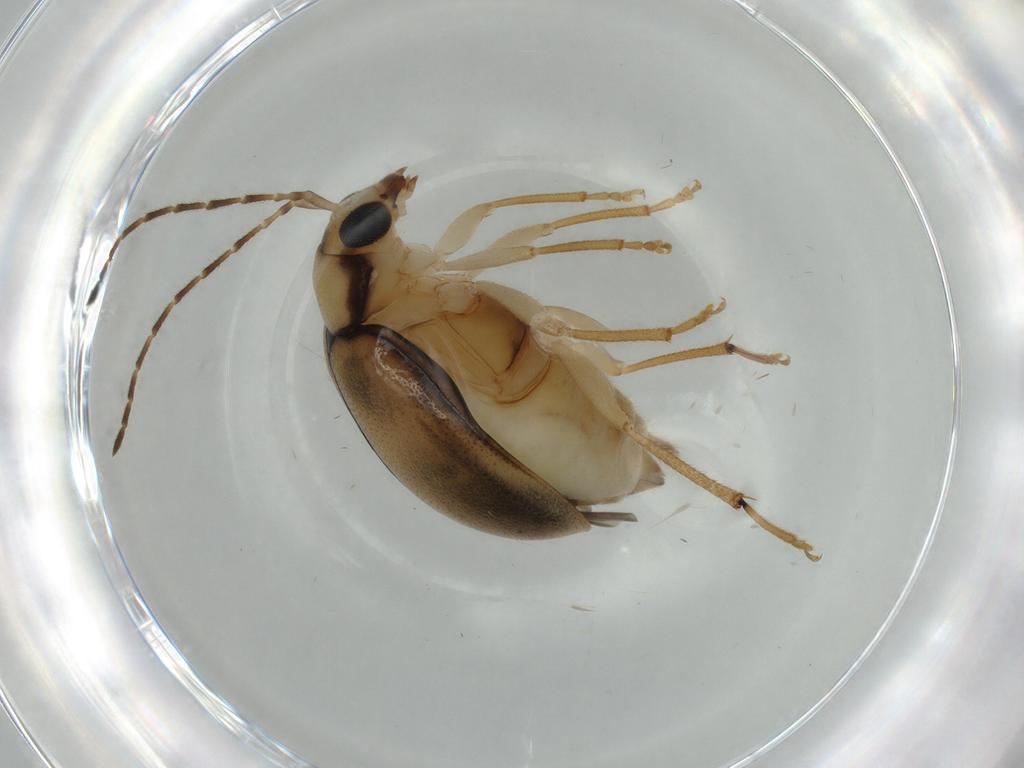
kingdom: Animalia
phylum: Arthropoda
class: Insecta
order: Coleoptera
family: Chrysomelidae
